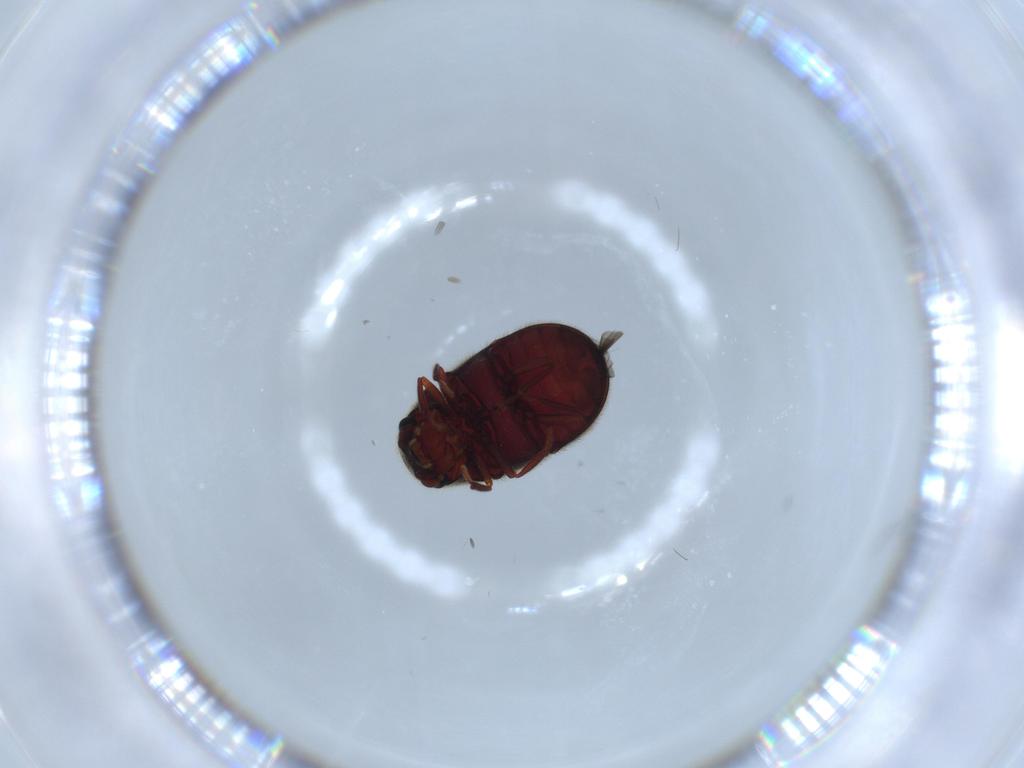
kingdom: Animalia
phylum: Arthropoda
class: Insecta
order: Coleoptera
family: Ptinidae
